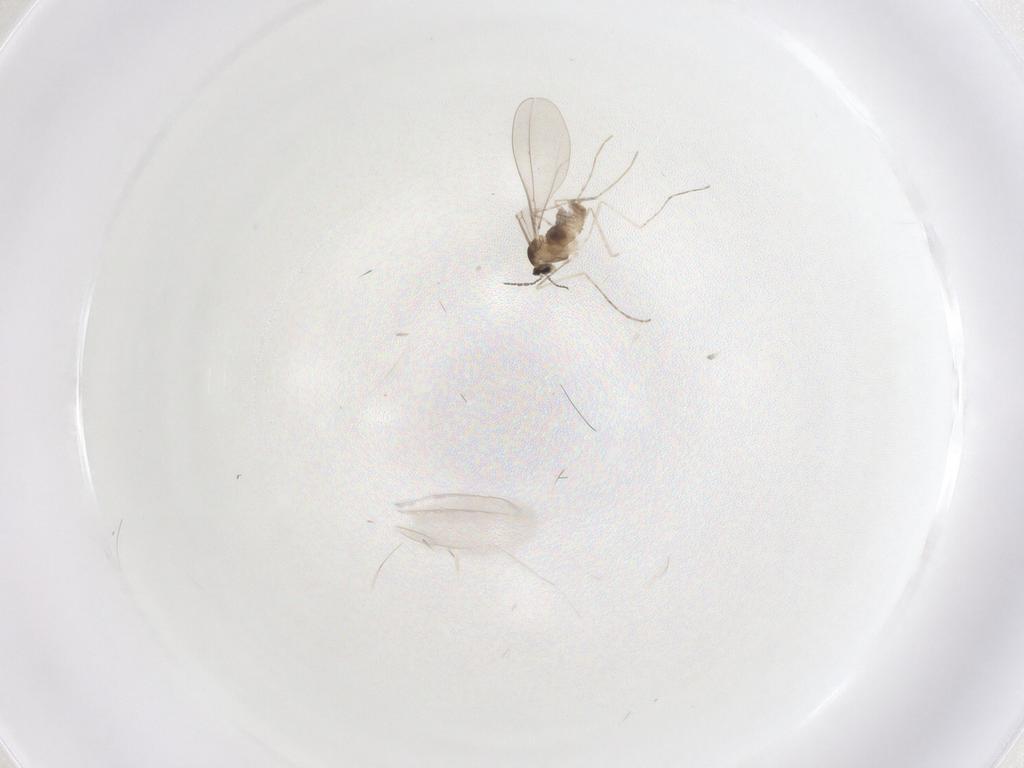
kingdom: Animalia
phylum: Arthropoda
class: Insecta
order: Diptera
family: Cecidomyiidae
